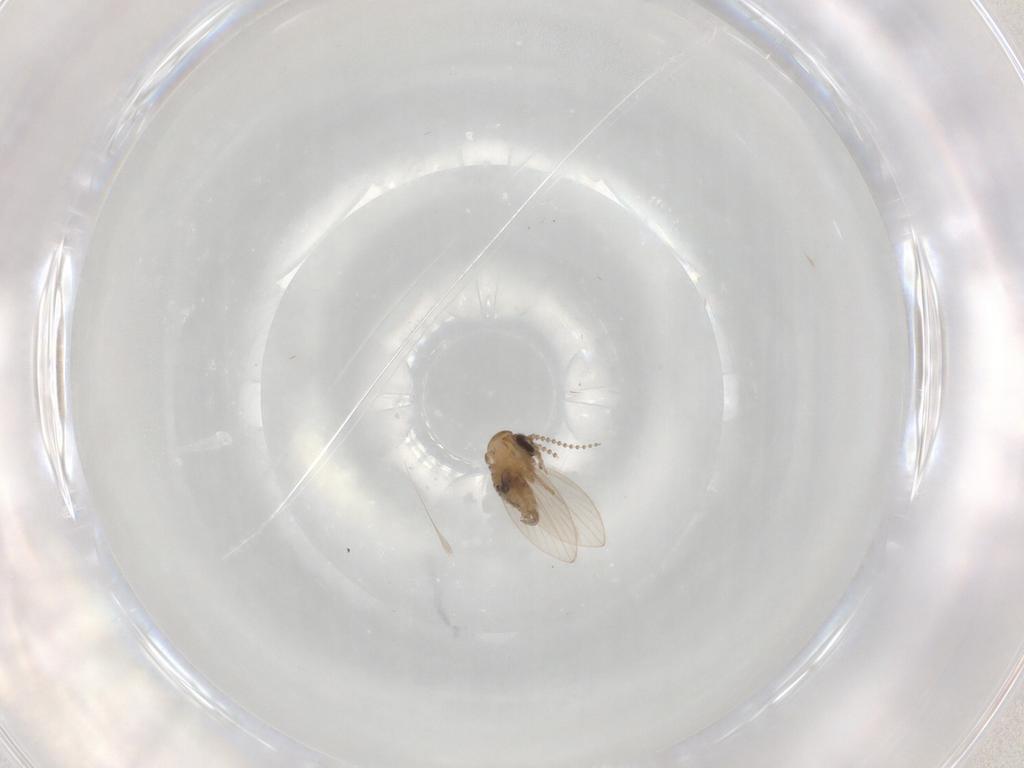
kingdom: Animalia
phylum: Arthropoda
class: Insecta
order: Diptera
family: Psychodidae
